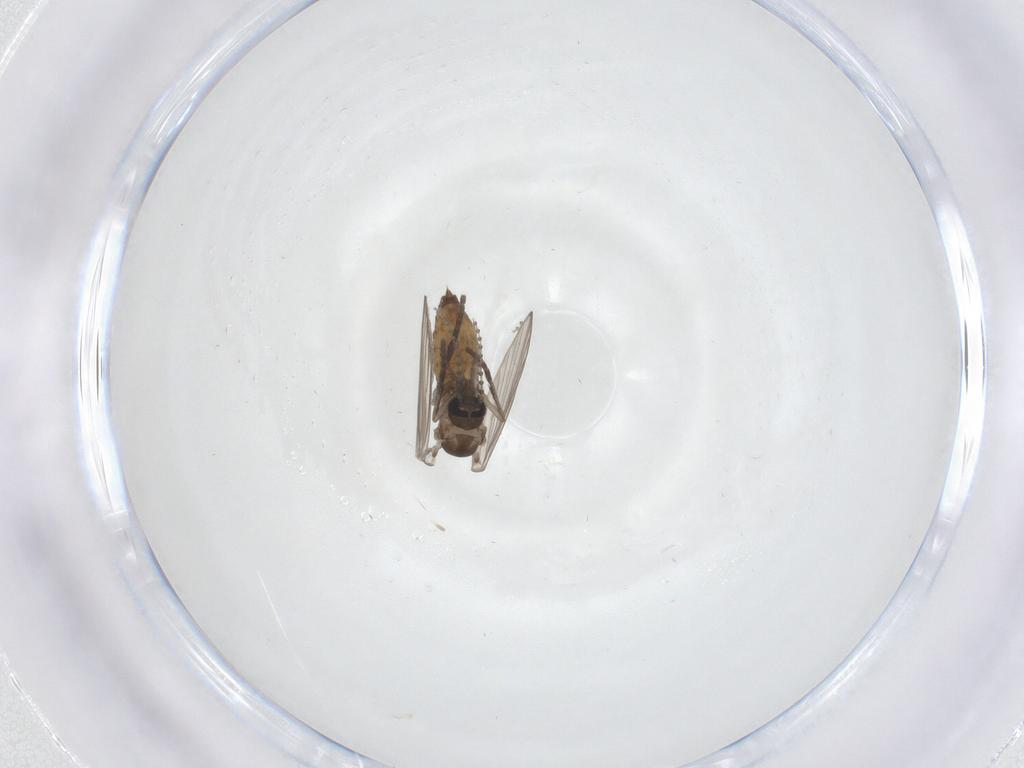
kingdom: Animalia
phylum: Arthropoda
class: Insecta
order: Diptera
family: Psychodidae
